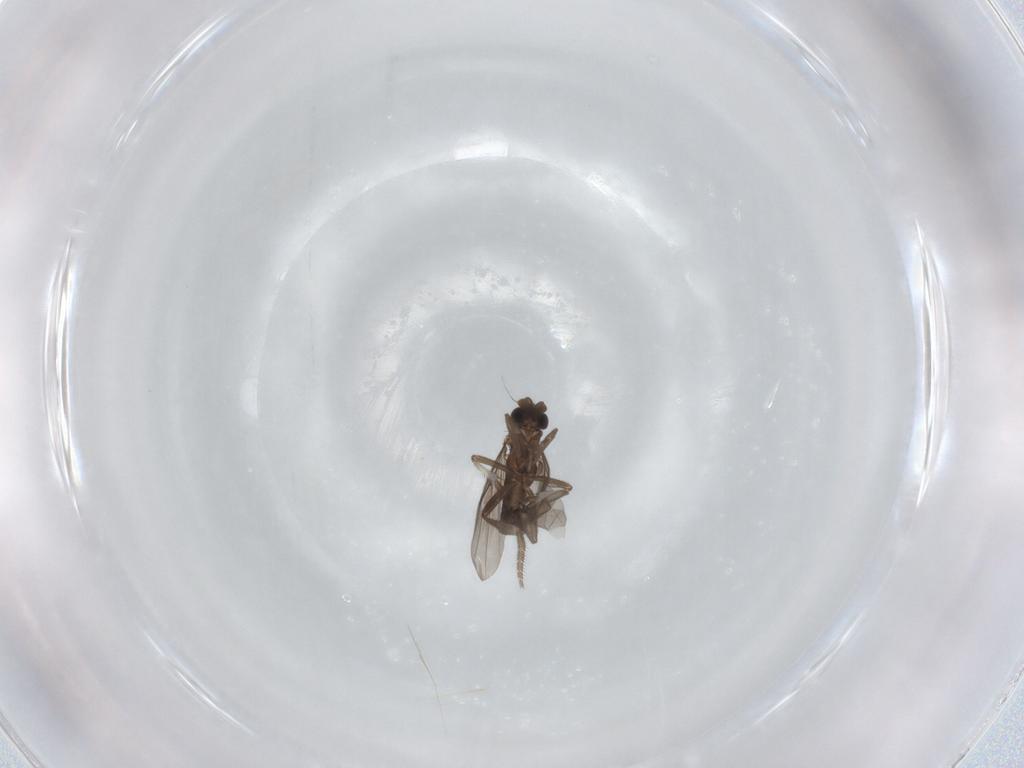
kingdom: Animalia
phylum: Arthropoda
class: Insecta
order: Diptera
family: Phoridae
